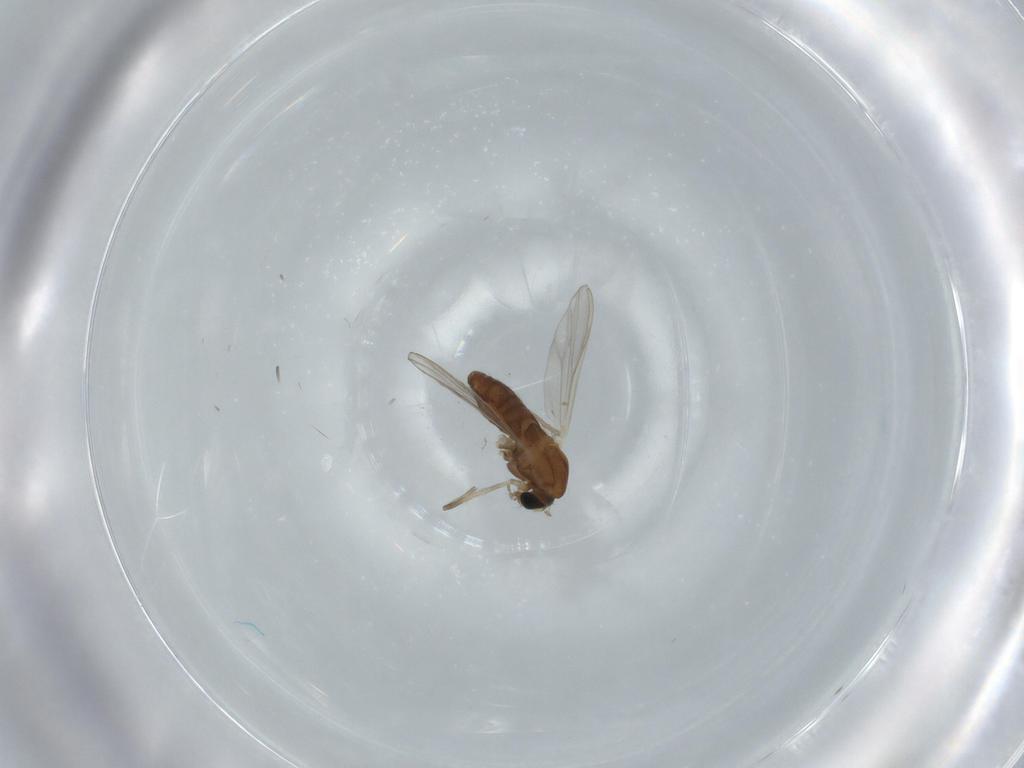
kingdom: Animalia
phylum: Arthropoda
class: Insecta
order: Diptera
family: Chironomidae
